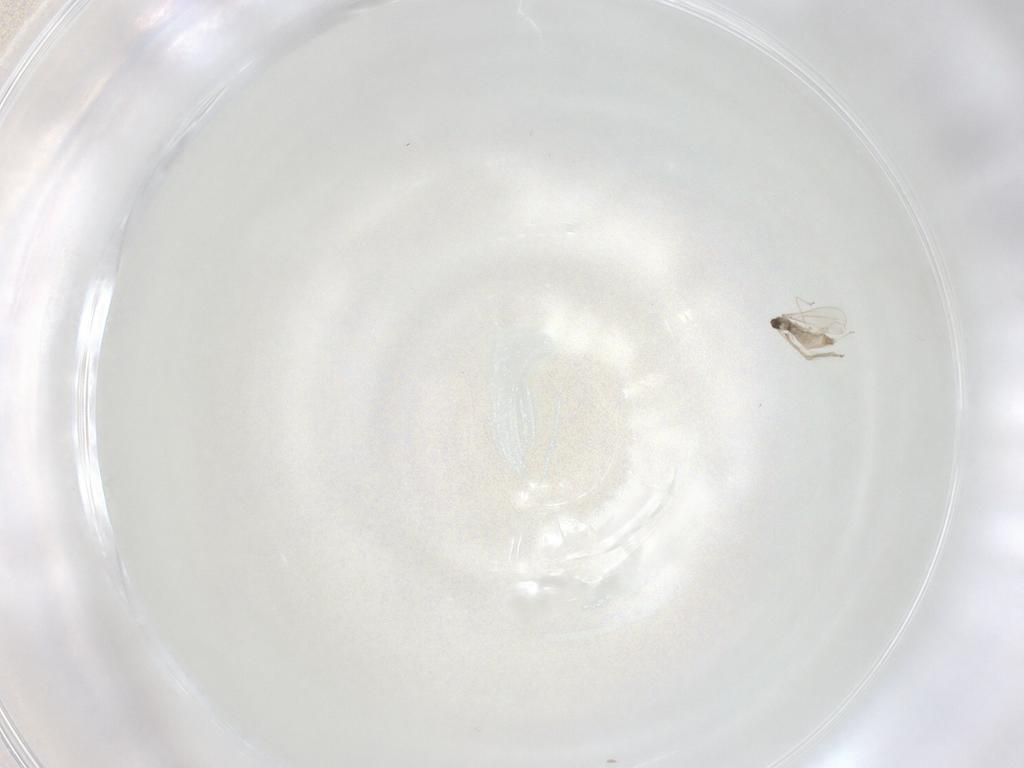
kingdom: Animalia
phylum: Arthropoda
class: Insecta
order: Diptera
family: Cecidomyiidae
